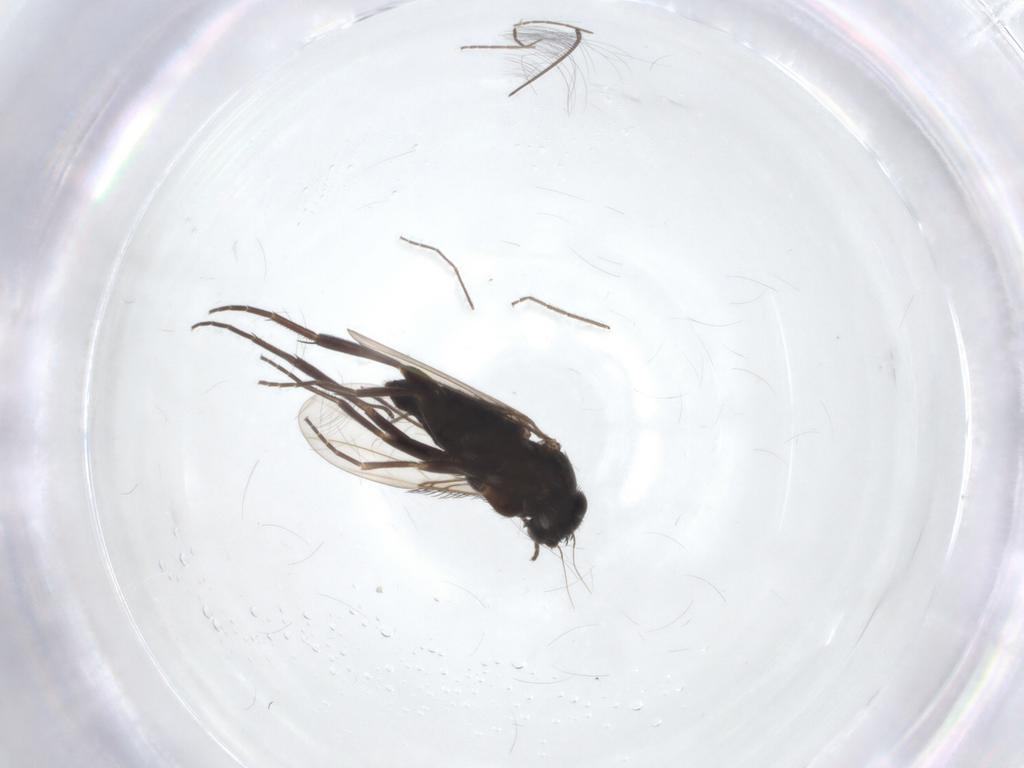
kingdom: Animalia
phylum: Arthropoda
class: Insecta
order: Diptera
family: Phoridae
